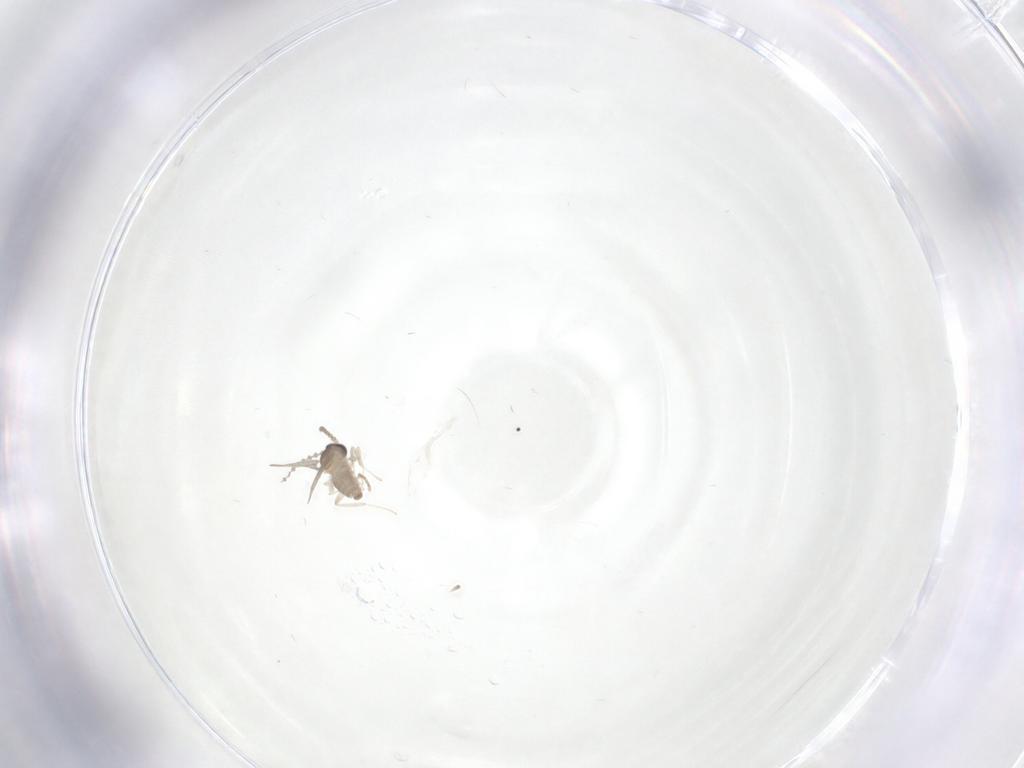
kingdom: Animalia
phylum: Arthropoda
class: Insecta
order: Diptera
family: Cecidomyiidae
